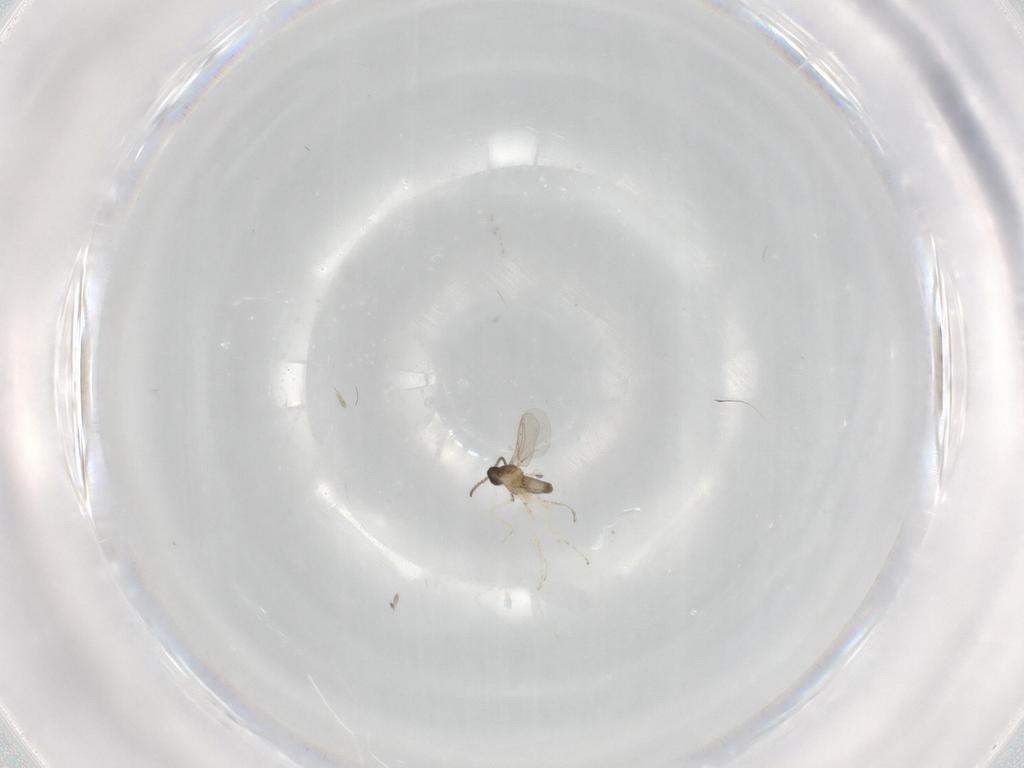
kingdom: Animalia
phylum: Arthropoda
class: Insecta
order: Diptera
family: Cecidomyiidae
